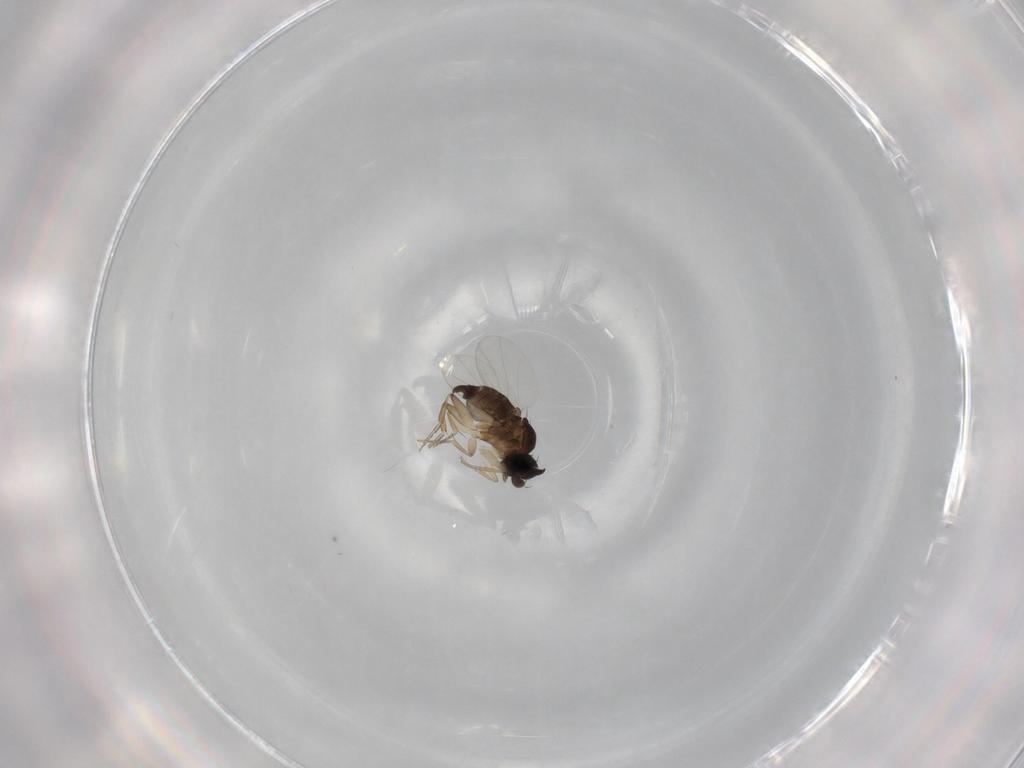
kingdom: Animalia
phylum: Arthropoda
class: Insecta
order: Diptera
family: Phoridae
